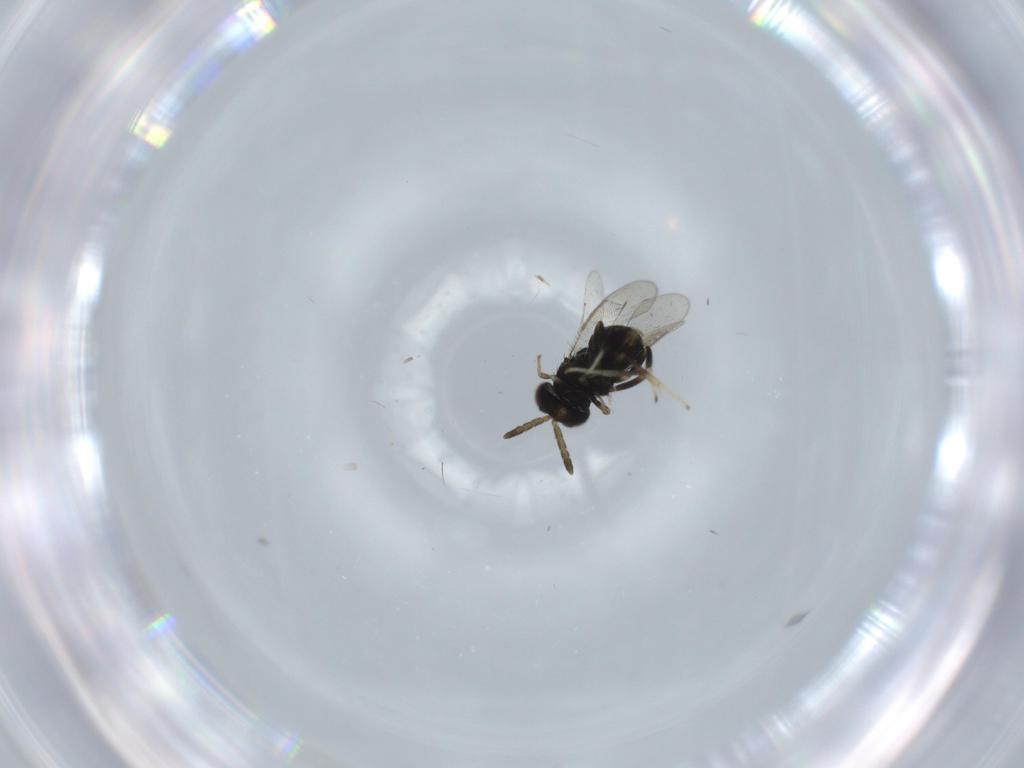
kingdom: Animalia
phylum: Arthropoda
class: Insecta
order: Hymenoptera
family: Aphelinidae
